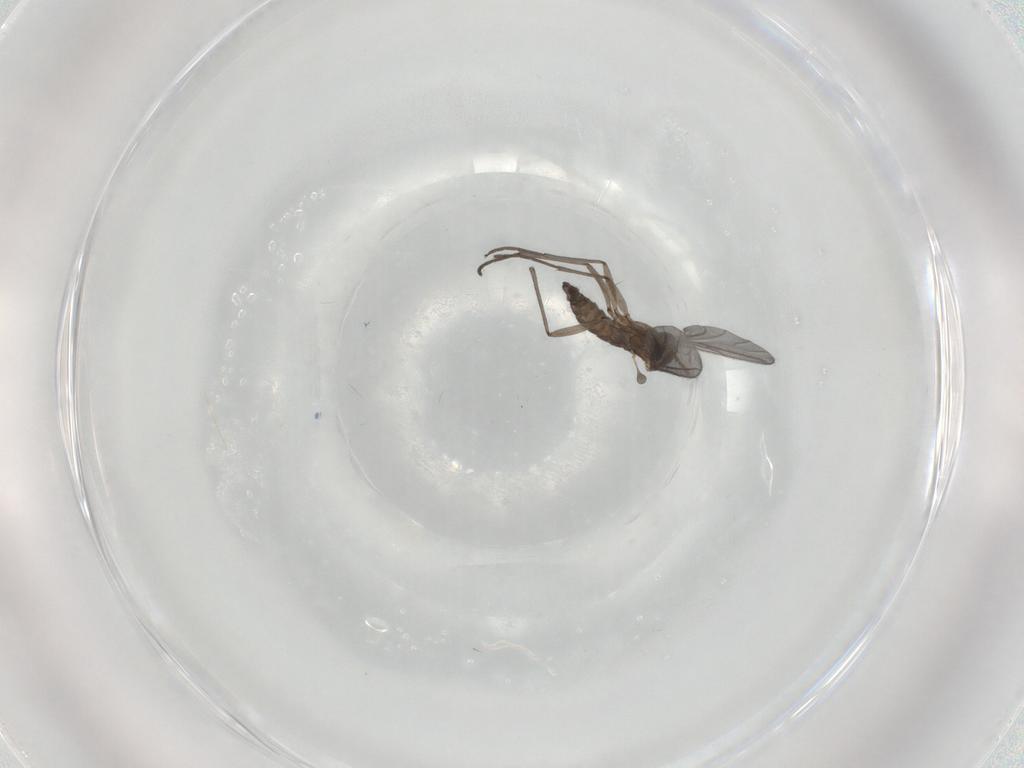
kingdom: Animalia
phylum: Arthropoda
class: Insecta
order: Diptera
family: Sciaridae
